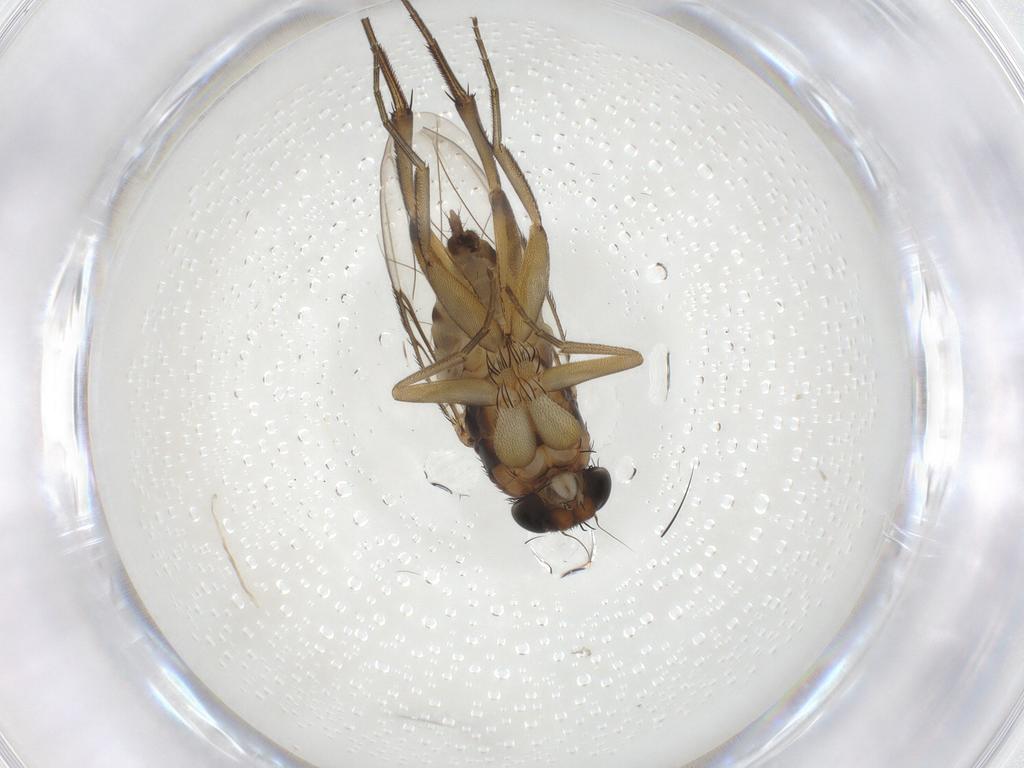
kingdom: Animalia
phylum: Arthropoda
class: Insecta
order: Diptera
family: Phoridae
